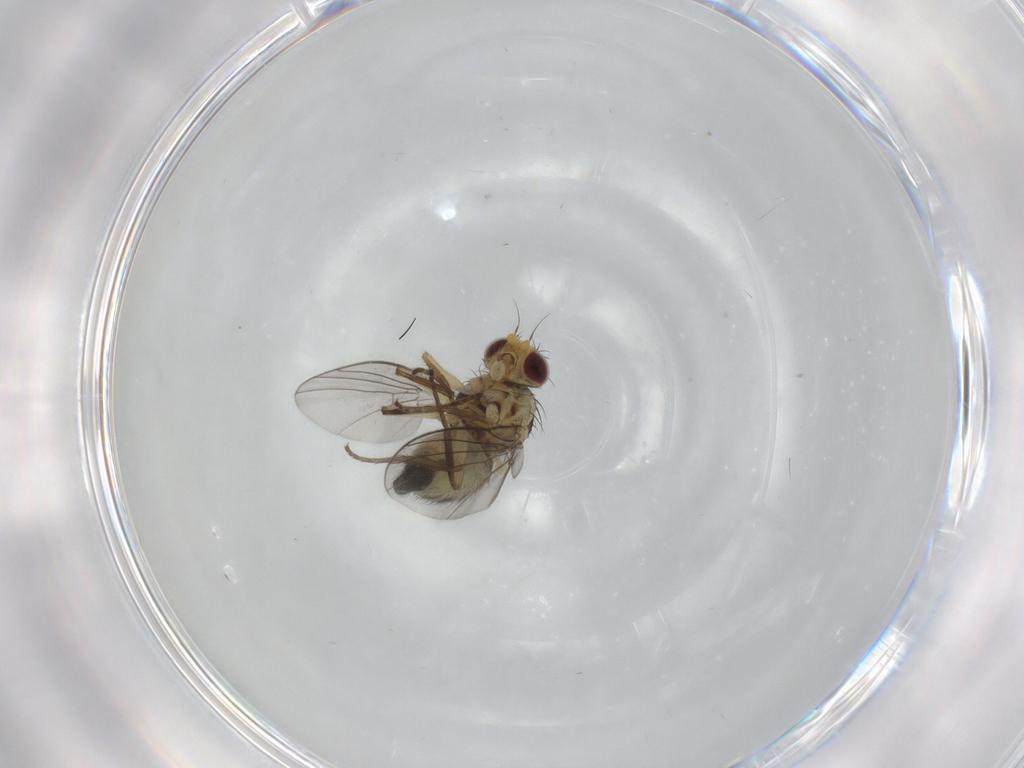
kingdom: Animalia
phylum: Arthropoda
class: Insecta
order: Diptera
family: Agromyzidae
